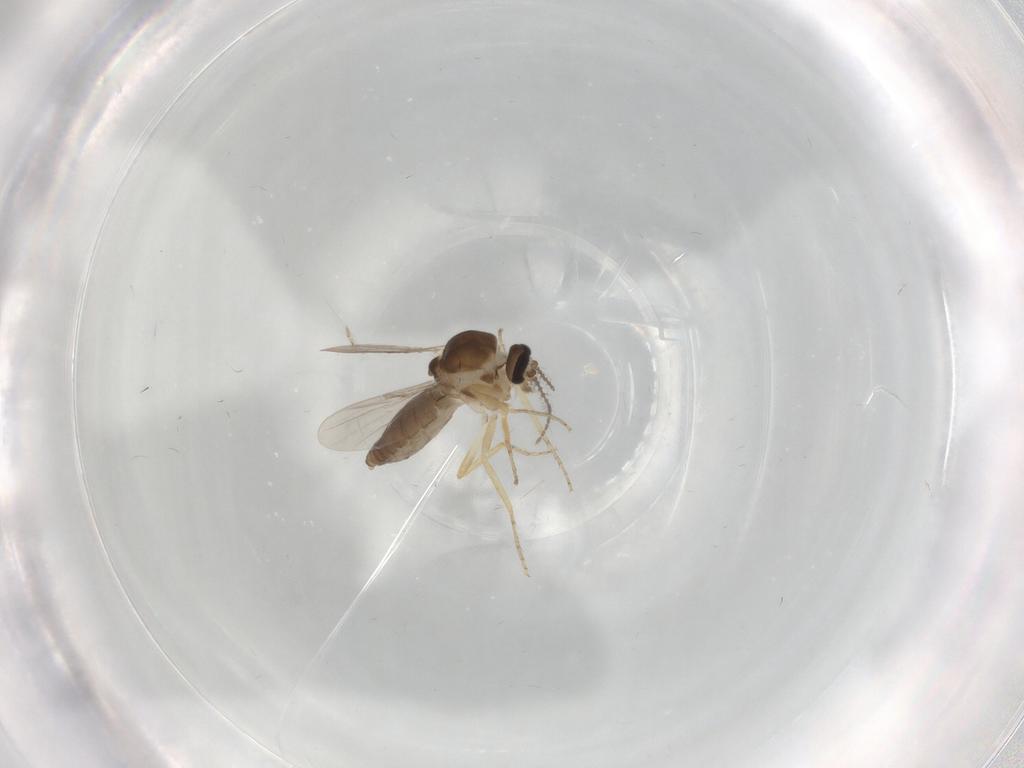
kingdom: Animalia
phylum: Arthropoda
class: Insecta
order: Diptera
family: Ceratopogonidae
